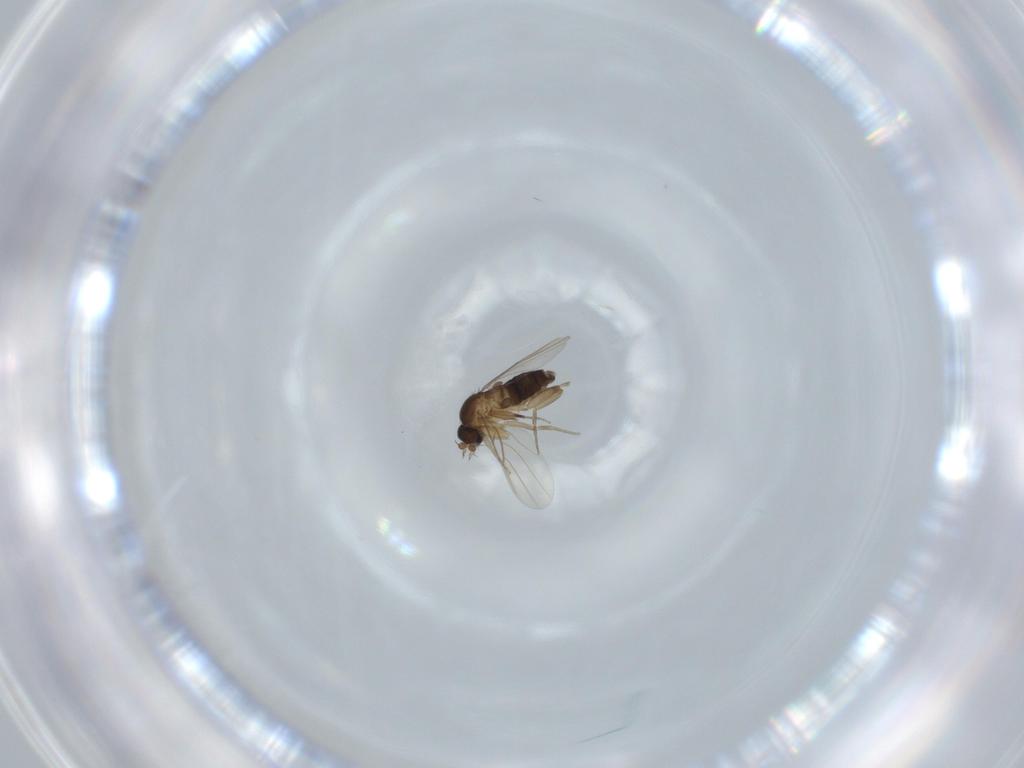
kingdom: Animalia
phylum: Arthropoda
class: Insecta
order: Diptera
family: Phoridae
